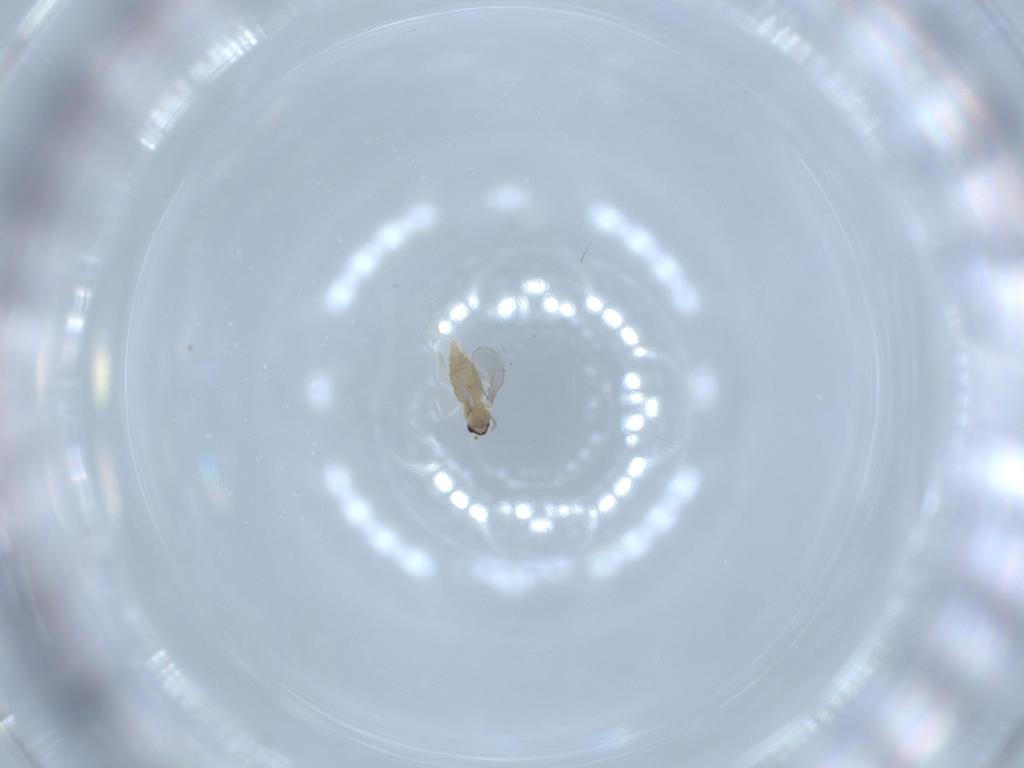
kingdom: Animalia
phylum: Arthropoda
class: Insecta
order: Diptera
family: Cecidomyiidae
